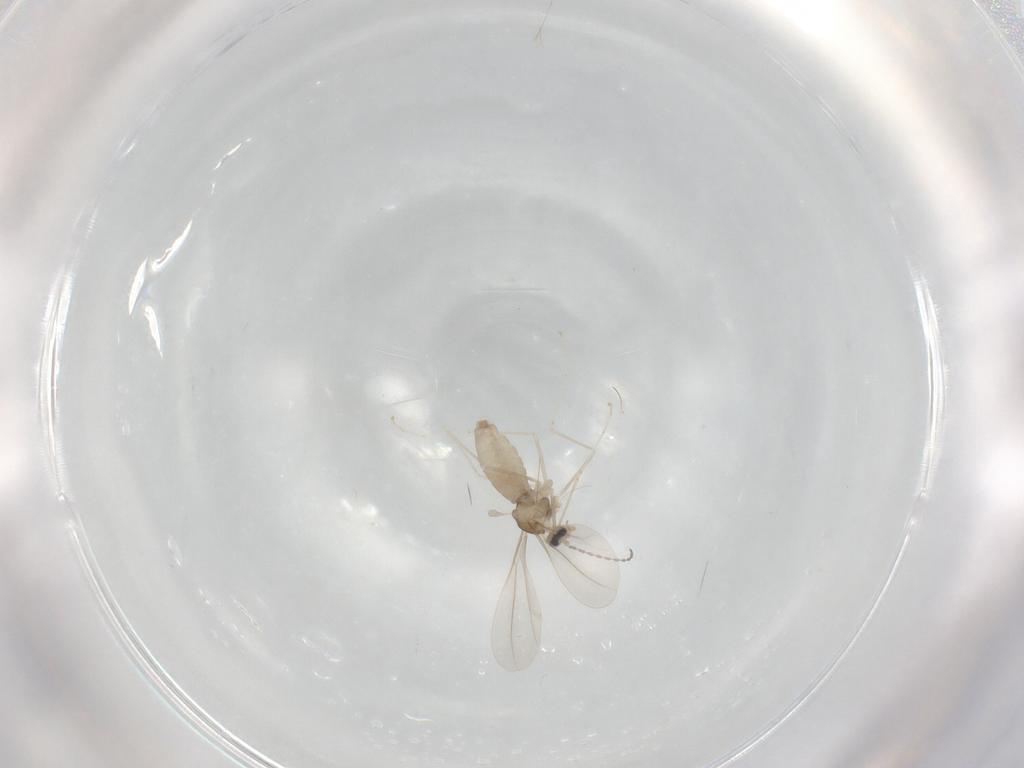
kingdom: Animalia
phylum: Arthropoda
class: Insecta
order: Diptera
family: Cecidomyiidae
